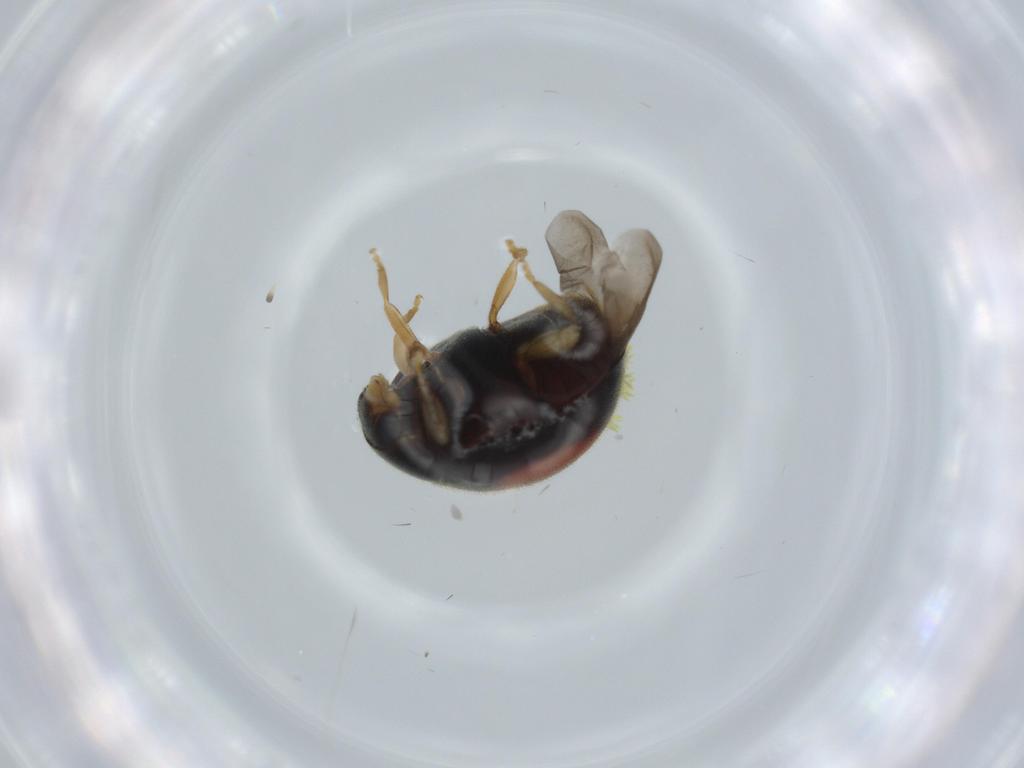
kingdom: Animalia
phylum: Arthropoda
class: Insecta
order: Coleoptera
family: Coccinellidae
